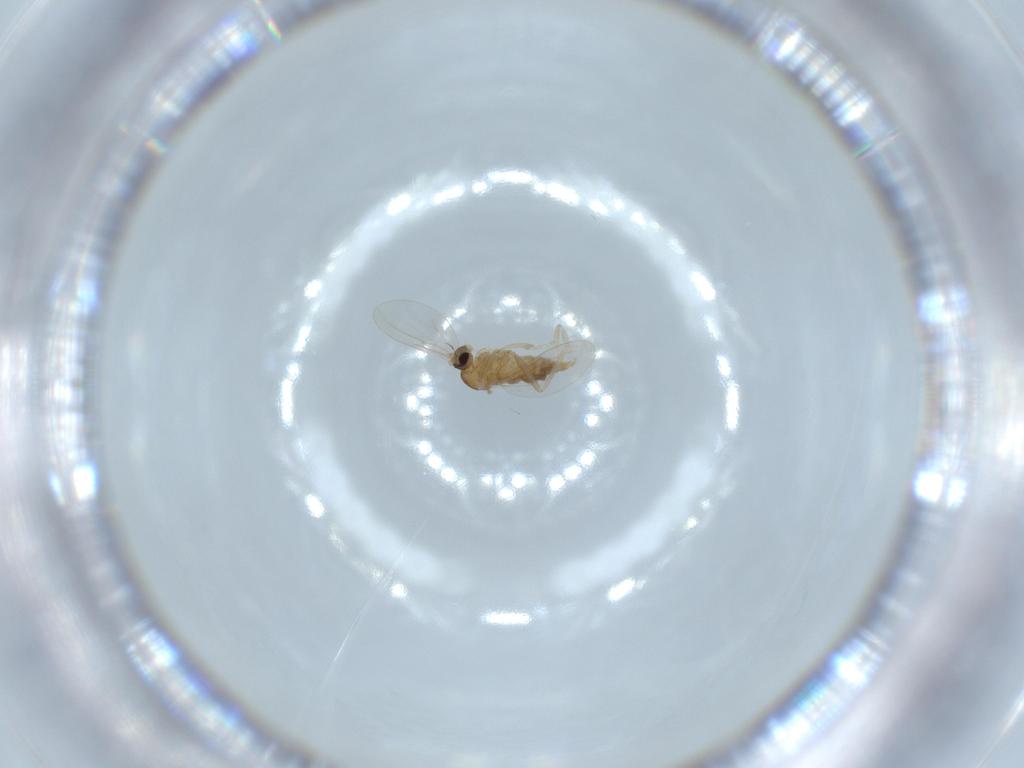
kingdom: Animalia
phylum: Arthropoda
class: Insecta
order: Diptera
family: Cecidomyiidae
